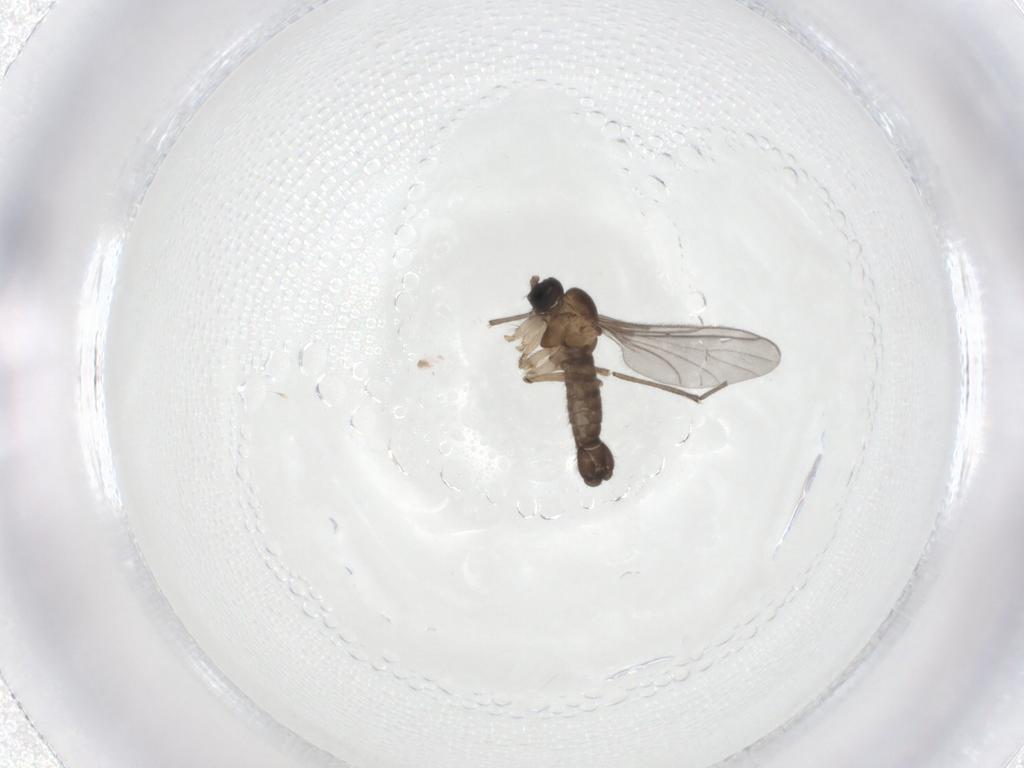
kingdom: Animalia
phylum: Arthropoda
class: Insecta
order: Diptera
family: Sciaridae
